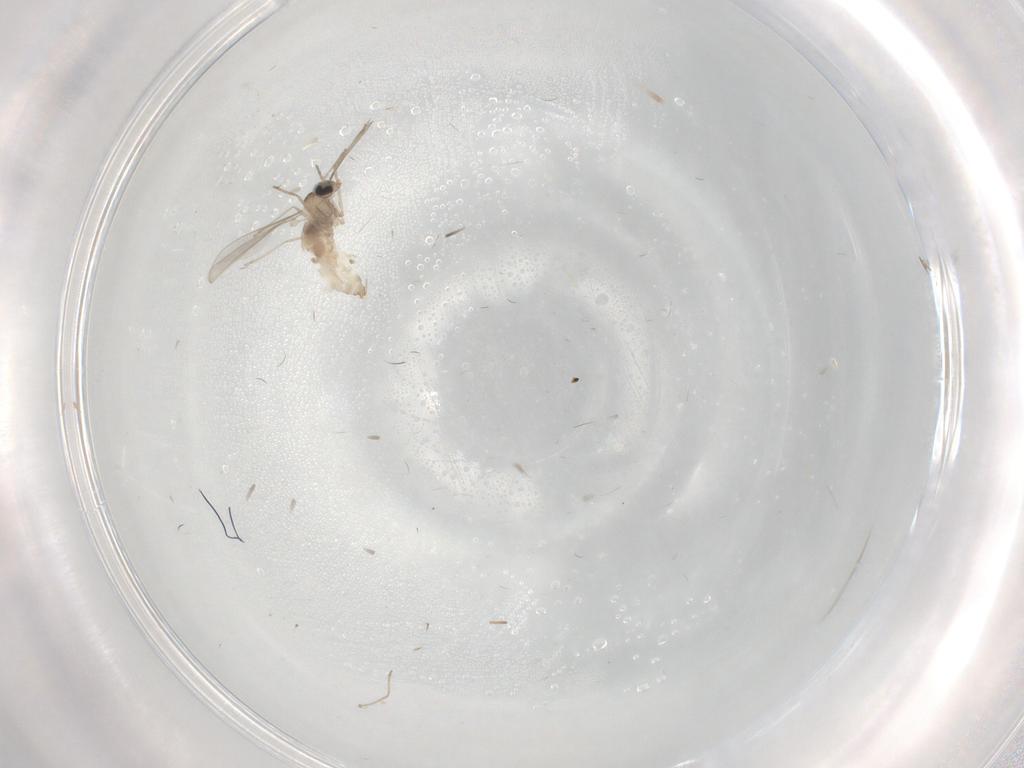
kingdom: Animalia
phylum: Arthropoda
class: Insecta
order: Diptera
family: Cecidomyiidae
